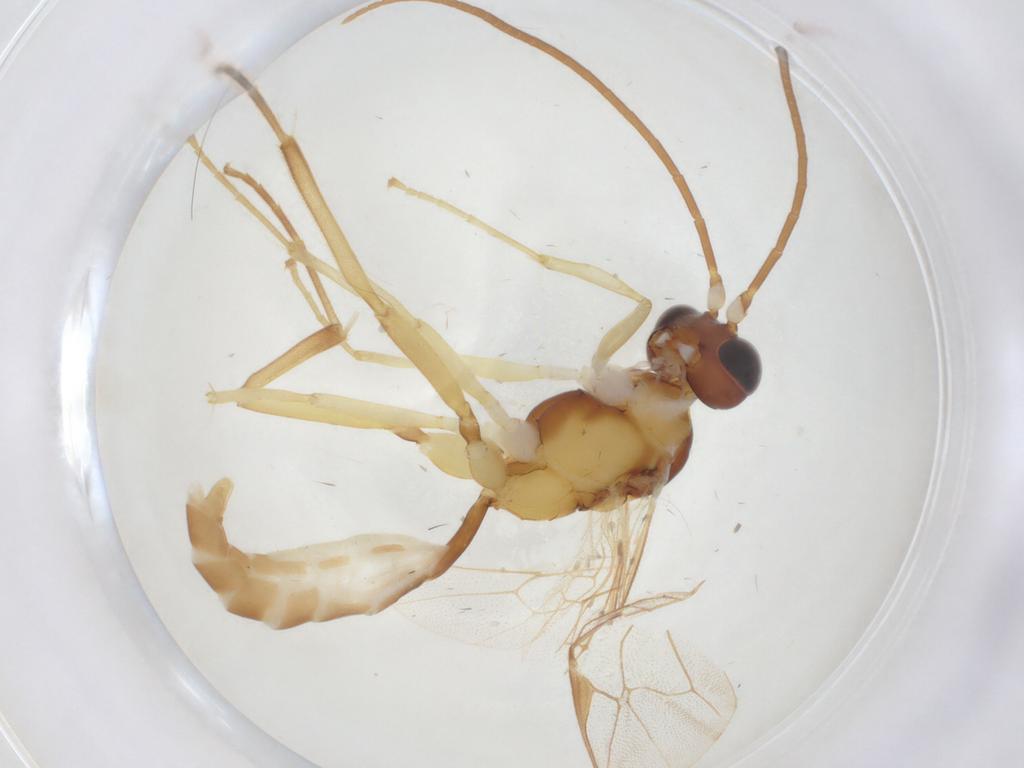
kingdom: Animalia
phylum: Arthropoda
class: Insecta
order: Hymenoptera
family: Ichneumonidae
